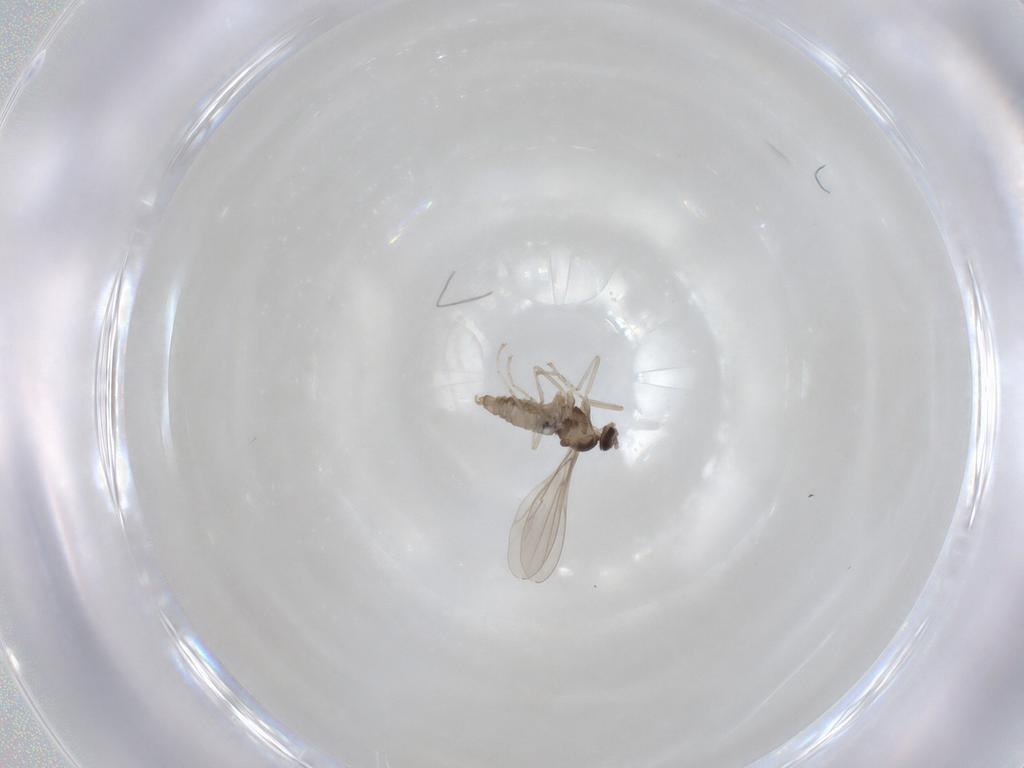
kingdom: Animalia
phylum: Arthropoda
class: Insecta
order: Diptera
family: Cecidomyiidae
